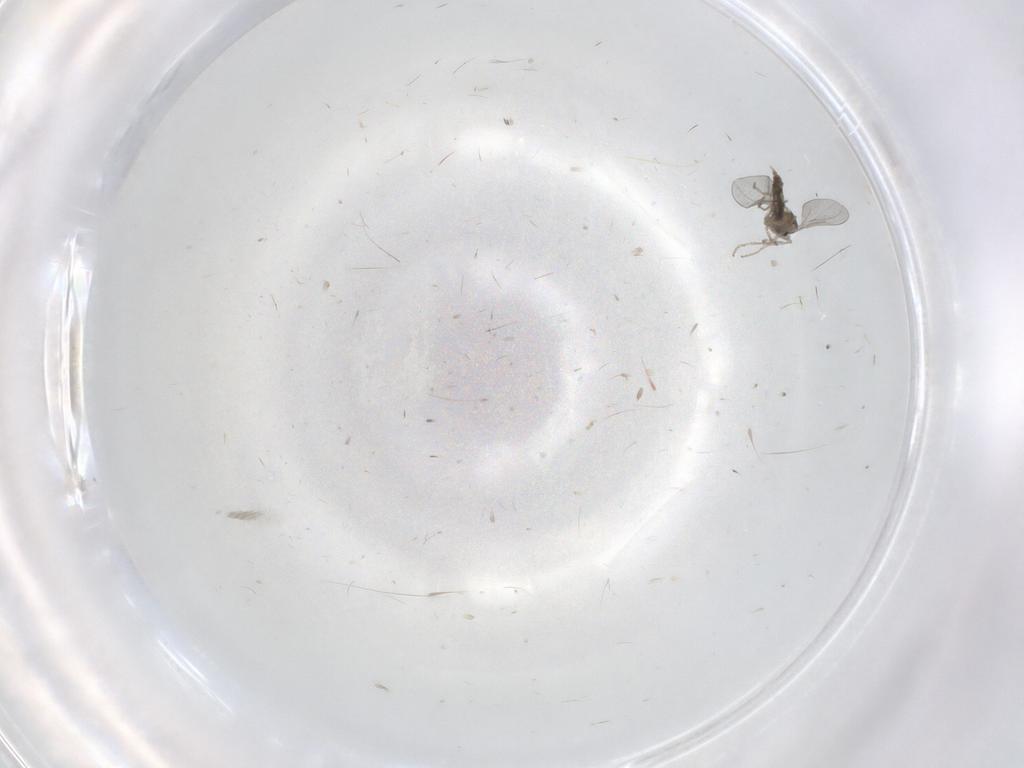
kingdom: Animalia
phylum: Arthropoda
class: Insecta
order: Diptera
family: Cecidomyiidae
